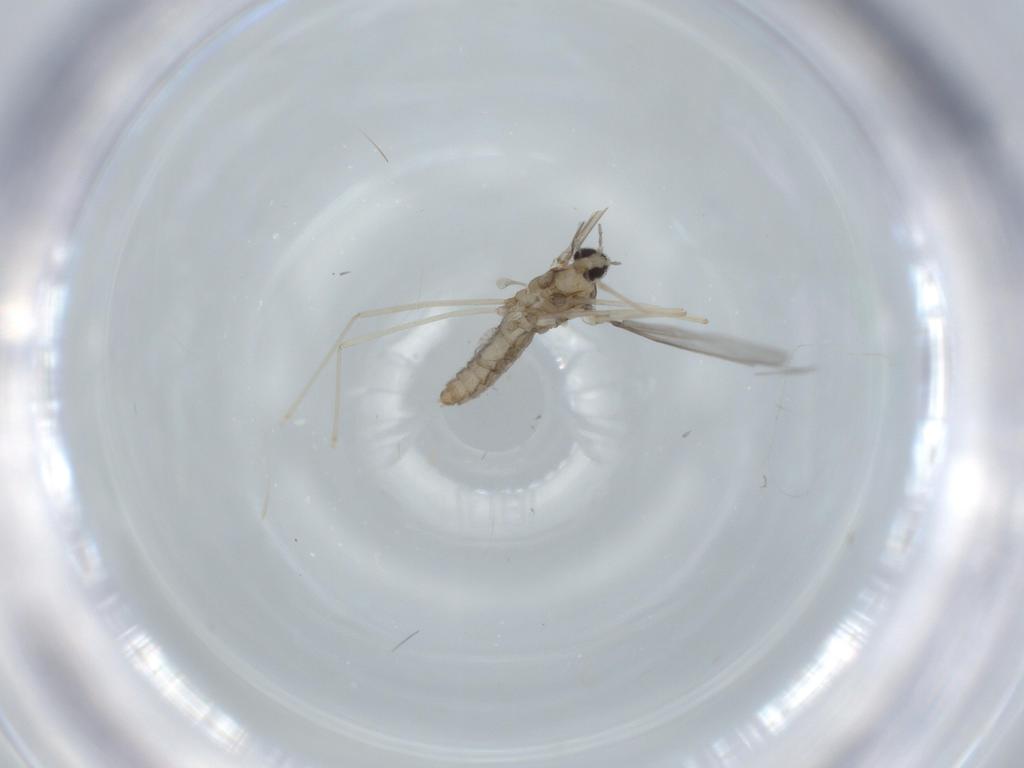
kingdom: Animalia
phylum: Arthropoda
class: Insecta
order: Diptera
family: Cecidomyiidae
